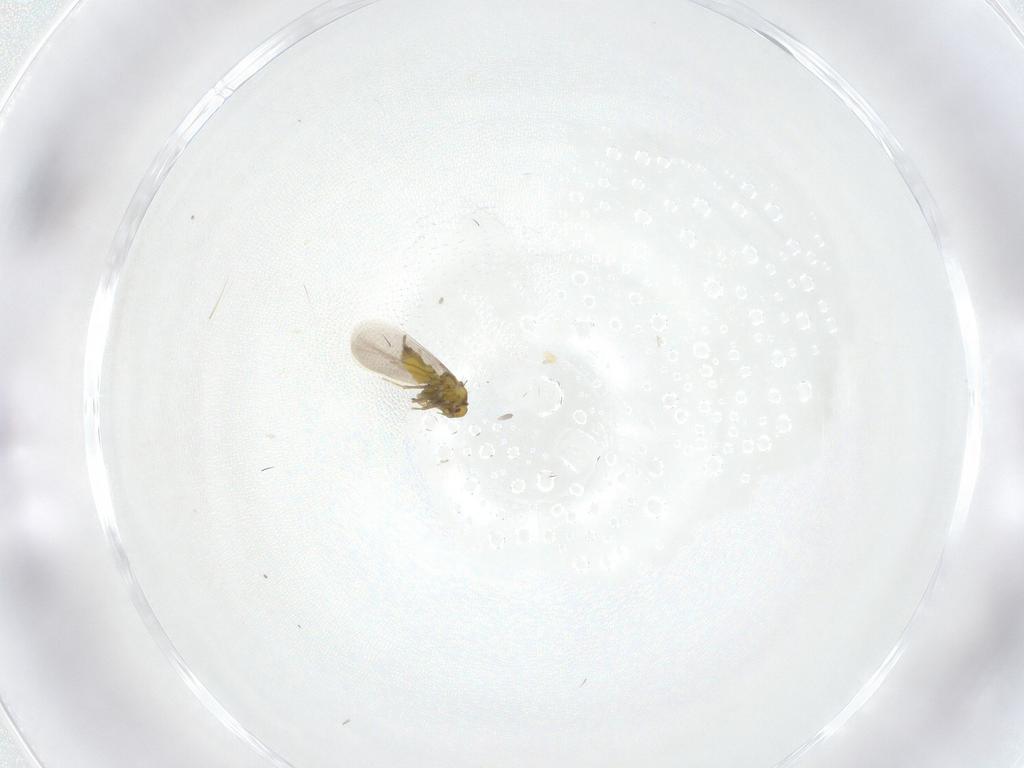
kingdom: Animalia
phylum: Arthropoda
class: Insecta
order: Hemiptera
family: Aleyrodidae
